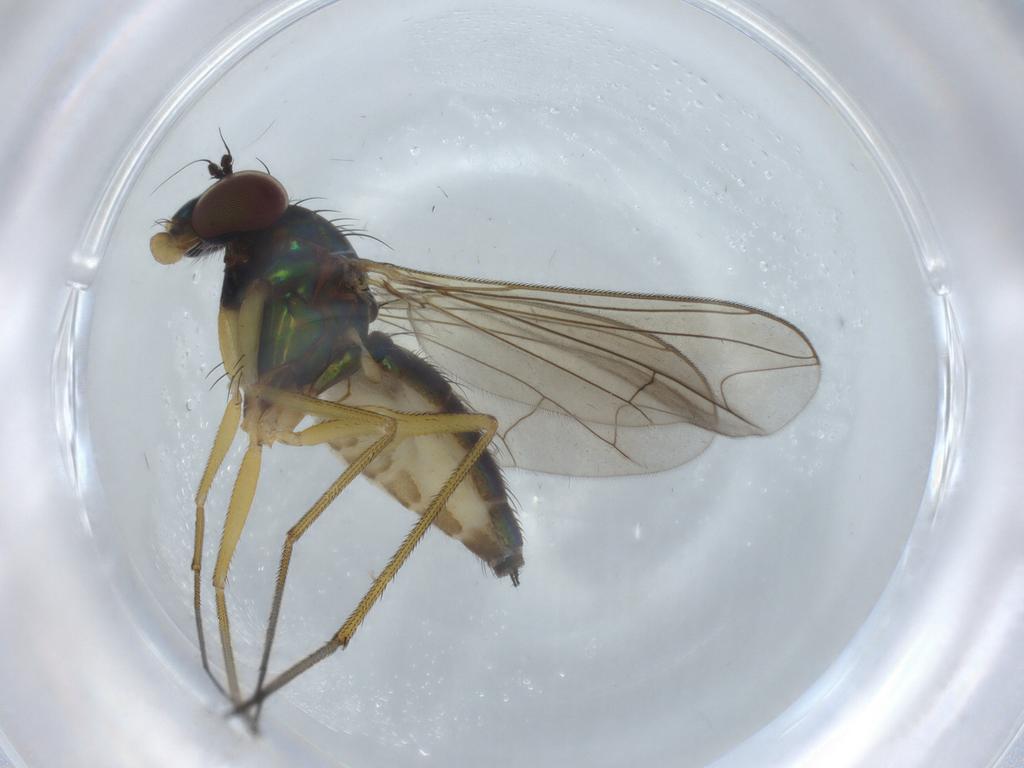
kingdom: Animalia
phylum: Arthropoda
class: Insecta
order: Diptera
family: Dolichopodidae
